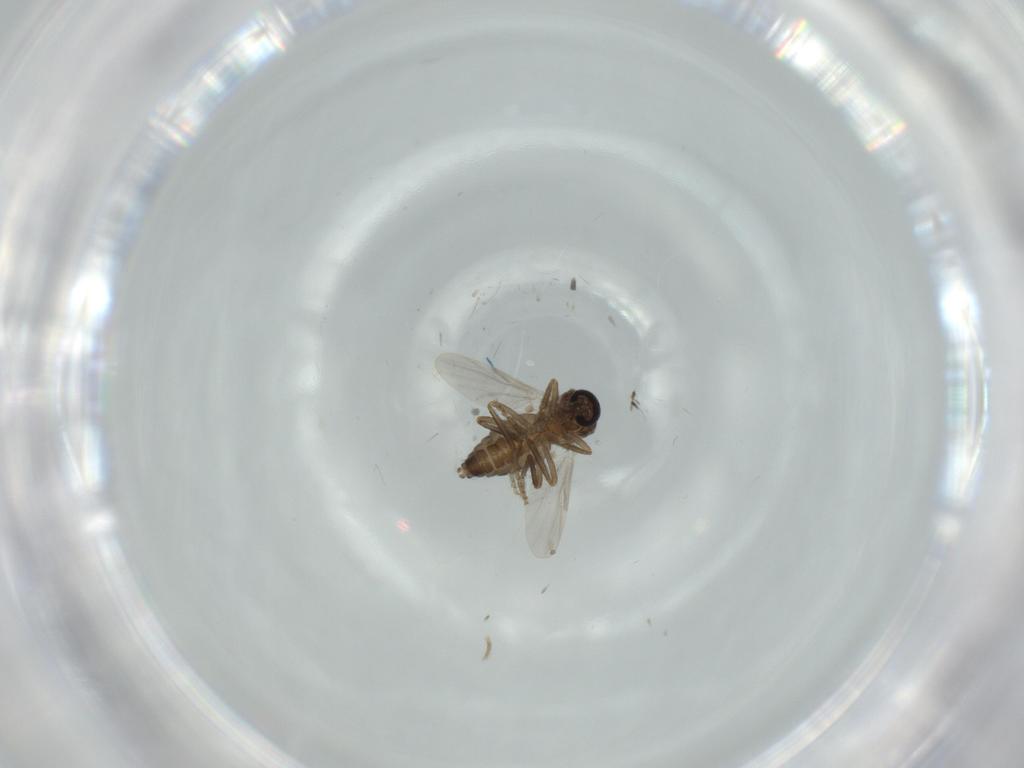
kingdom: Animalia
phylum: Arthropoda
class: Insecta
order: Diptera
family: Ceratopogonidae
